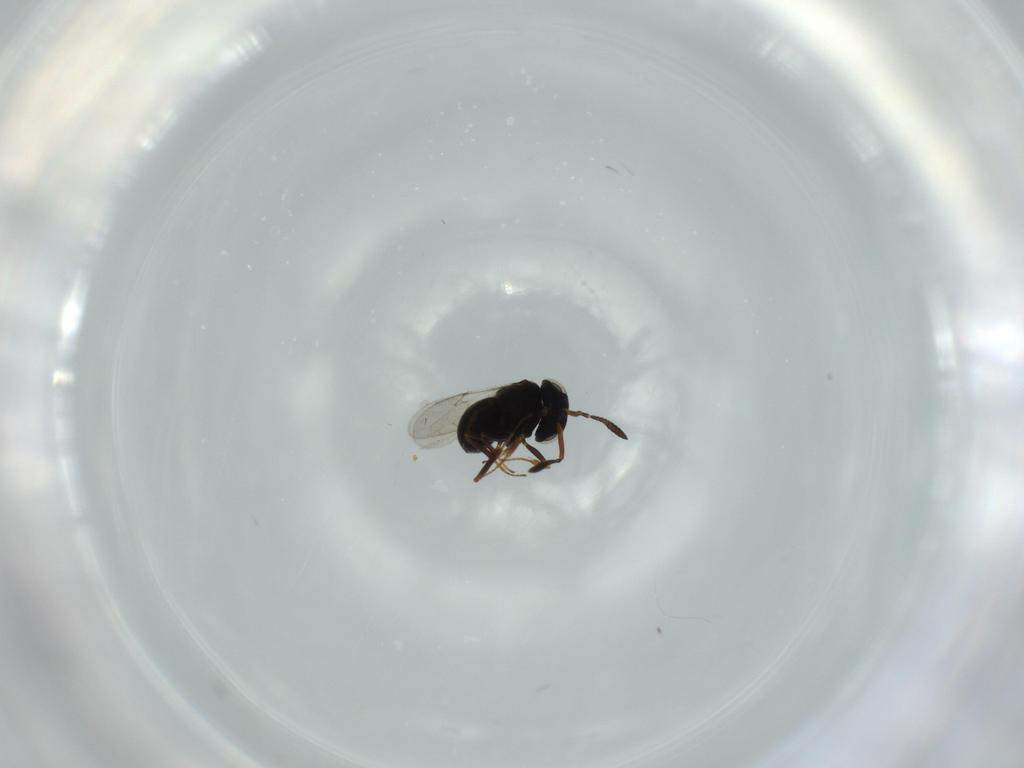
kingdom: Animalia
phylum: Arthropoda
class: Insecta
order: Hymenoptera
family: Scelionidae
